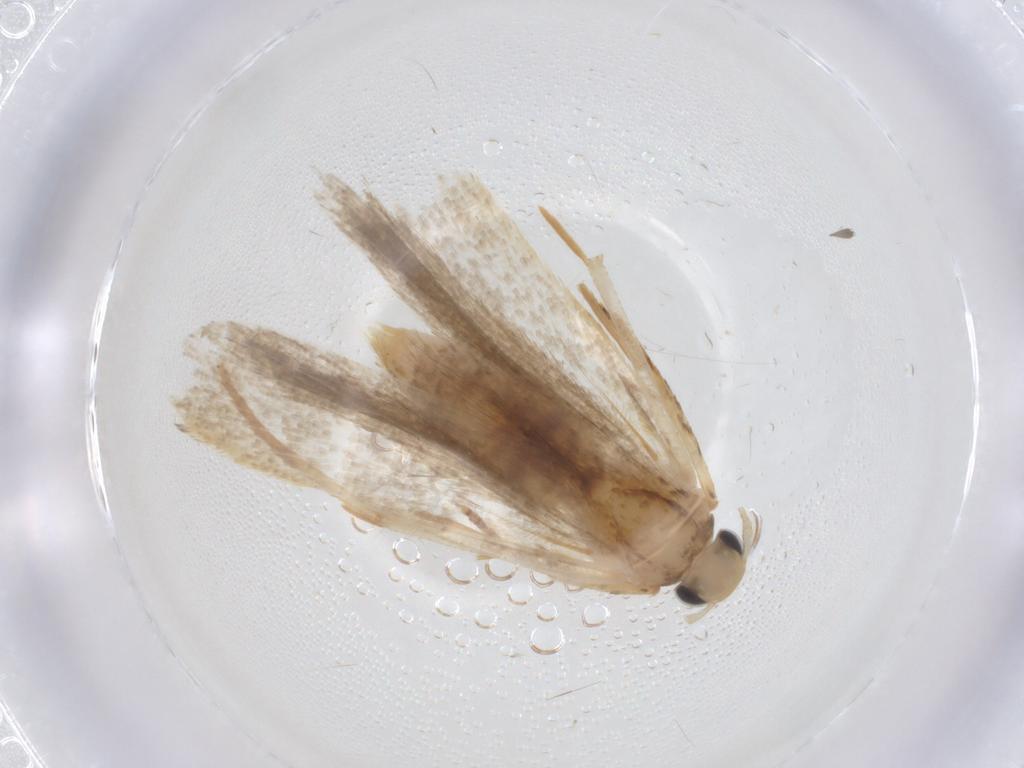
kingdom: Animalia
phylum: Arthropoda
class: Insecta
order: Lepidoptera
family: Gelechiidae
